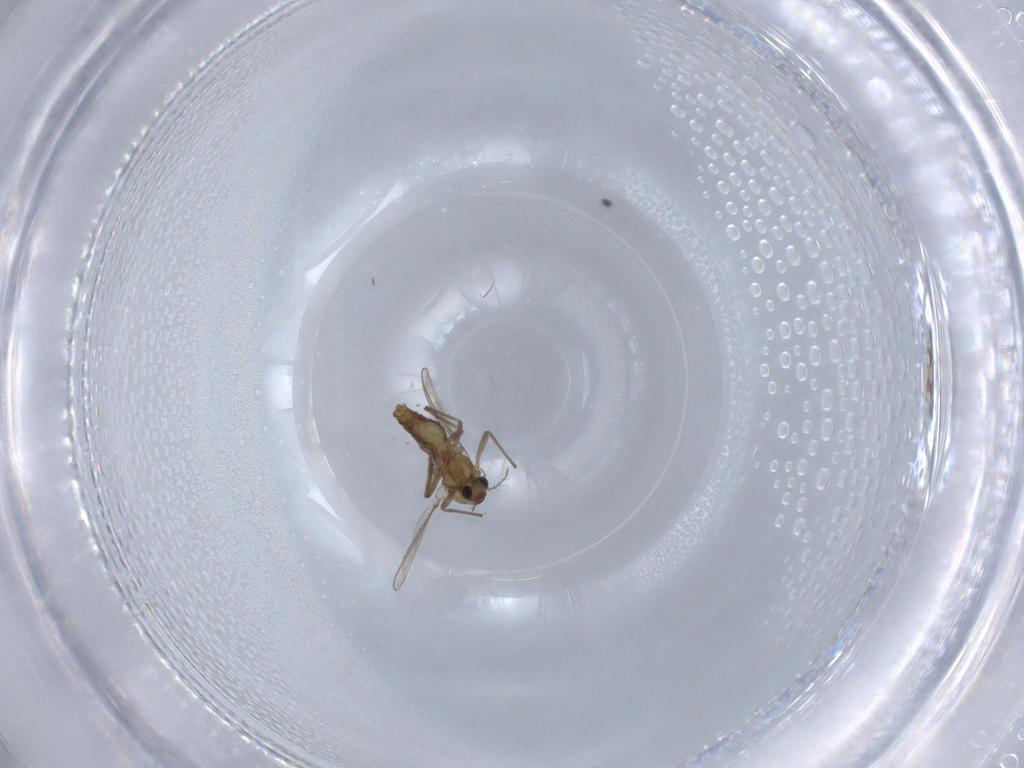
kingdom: Animalia
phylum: Arthropoda
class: Insecta
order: Diptera
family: Chironomidae
